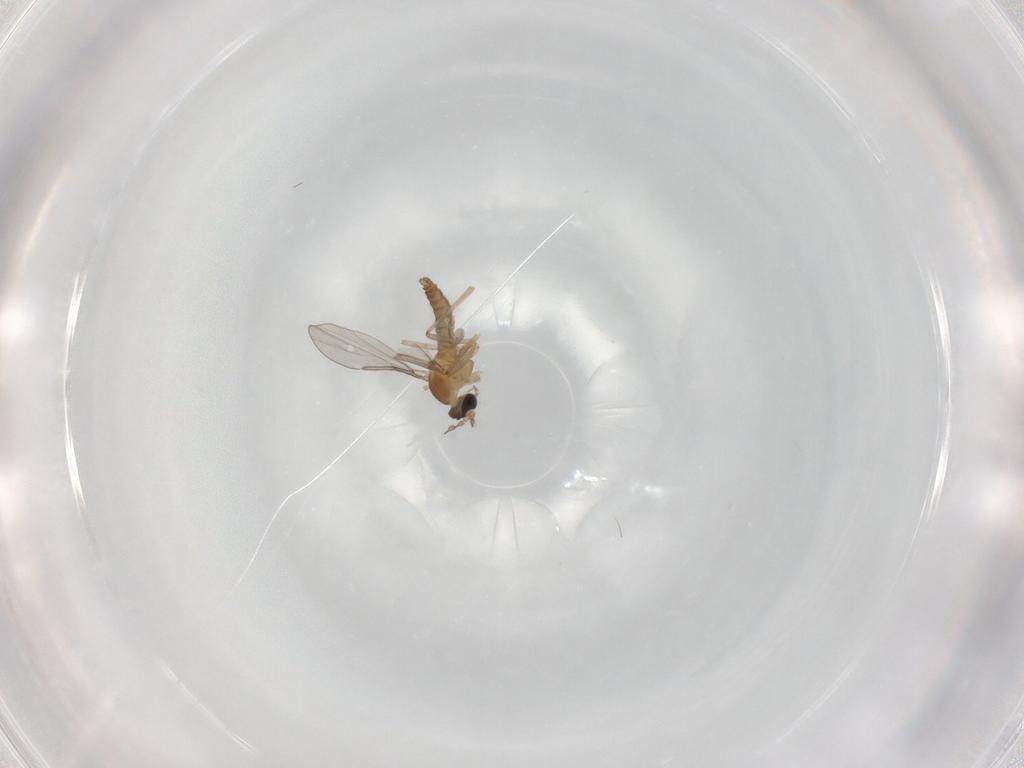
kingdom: Animalia
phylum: Arthropoda
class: Insecta
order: Diptera
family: Cecidomyiidae
